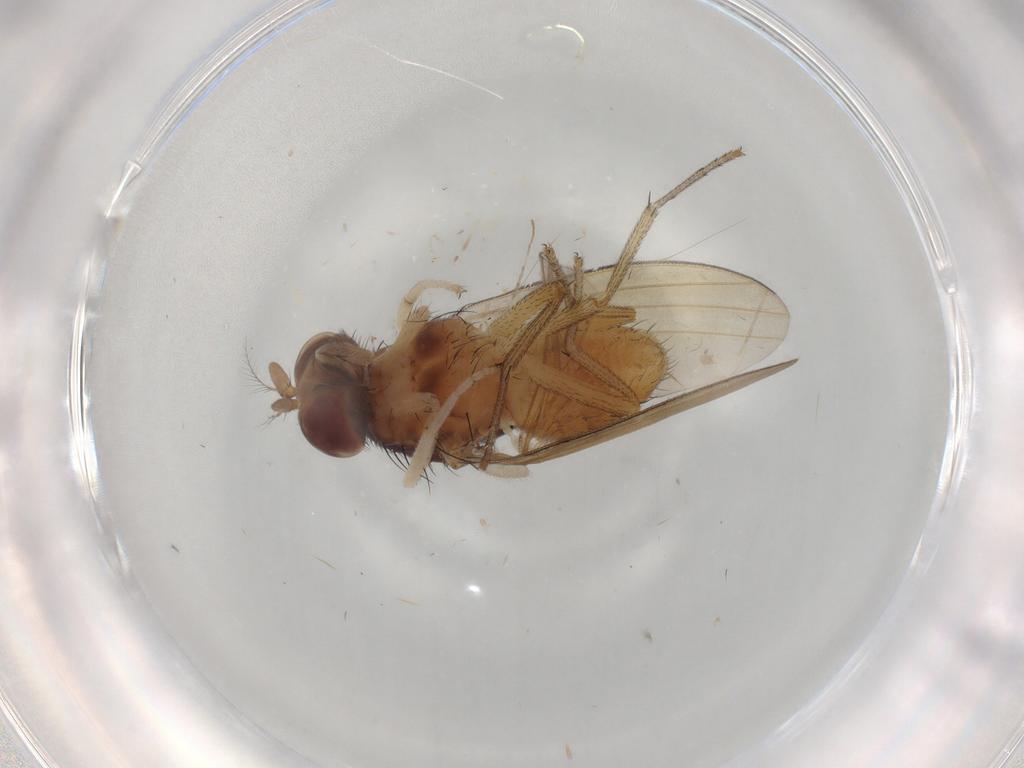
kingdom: Animalia
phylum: Arthropoda
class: Insecta
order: Diptera
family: Lauxaniidae
